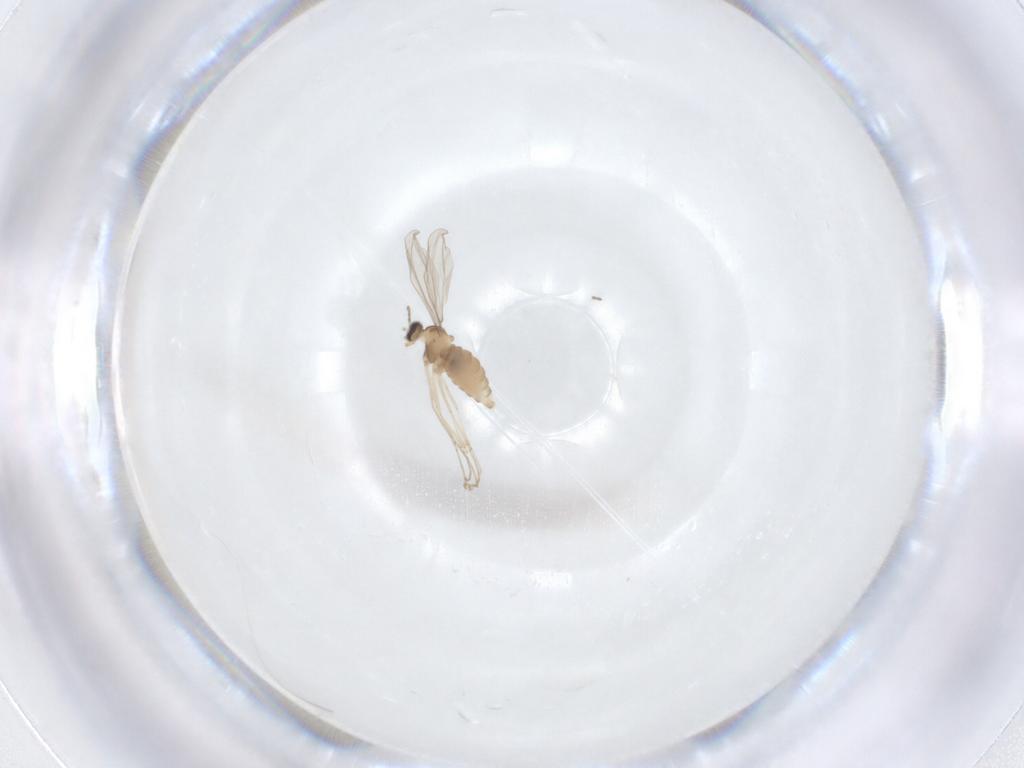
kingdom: Animalia
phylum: Arthropoda
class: Insecta
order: Diptera
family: Cecidomyiidae
